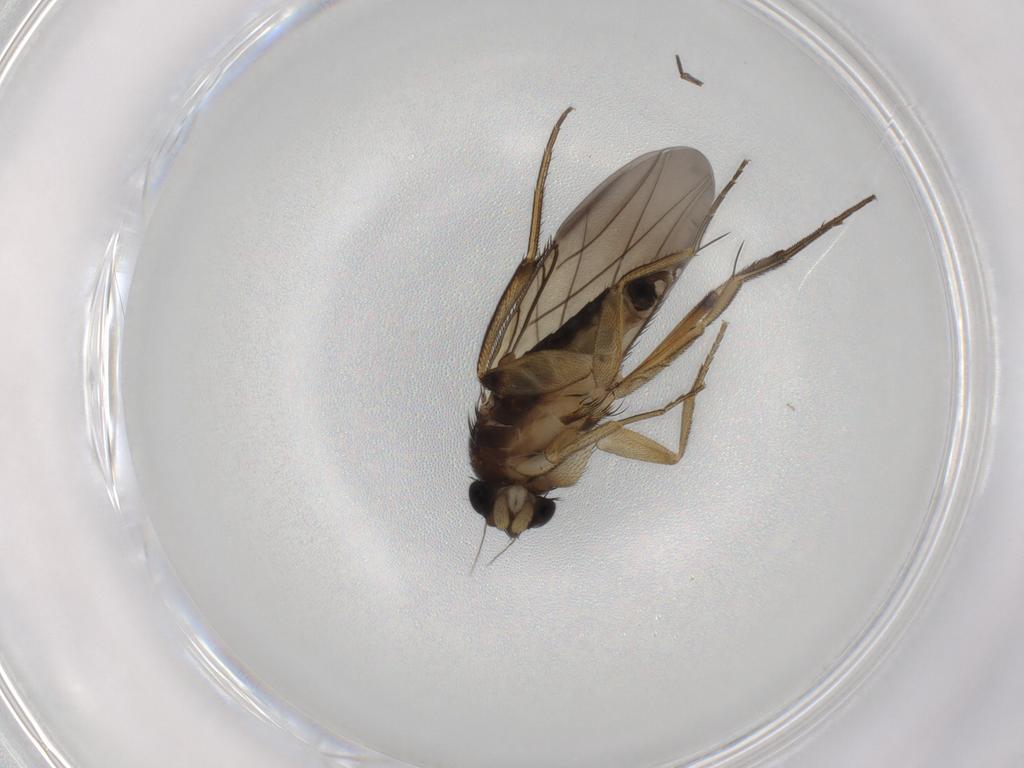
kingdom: Animalia
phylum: Arthropoda
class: Insecta
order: Diptera
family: Phoridae
